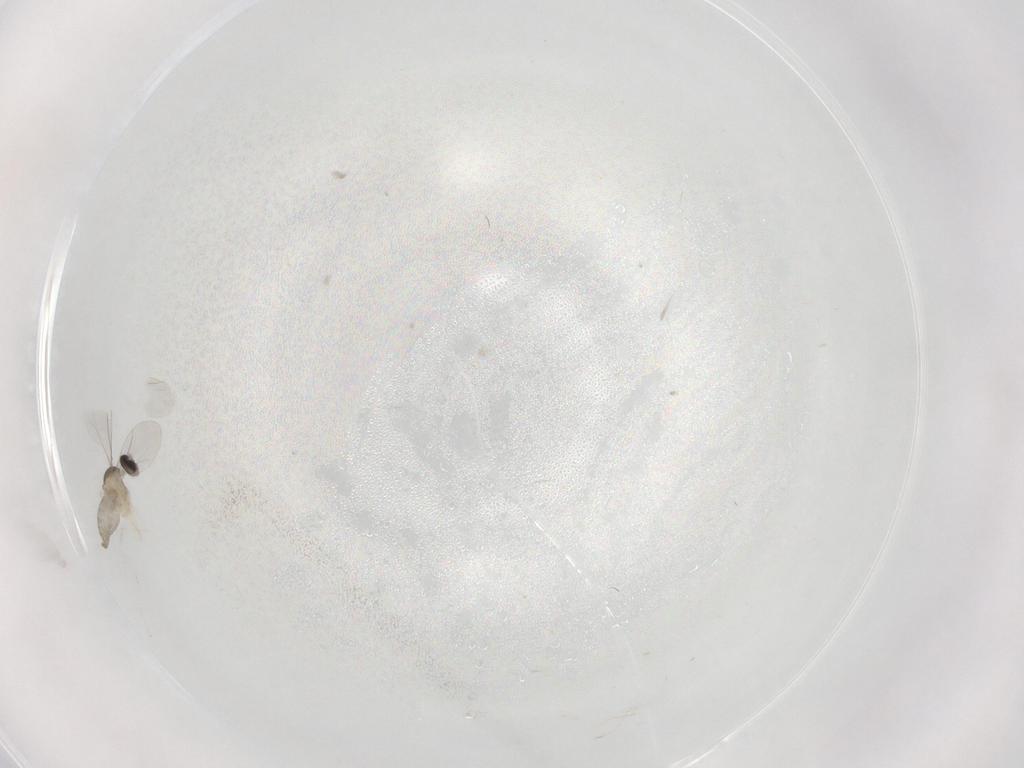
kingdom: Animalia
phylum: Arthropoda
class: Insecta
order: Diptera
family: Cecidomyiidae
